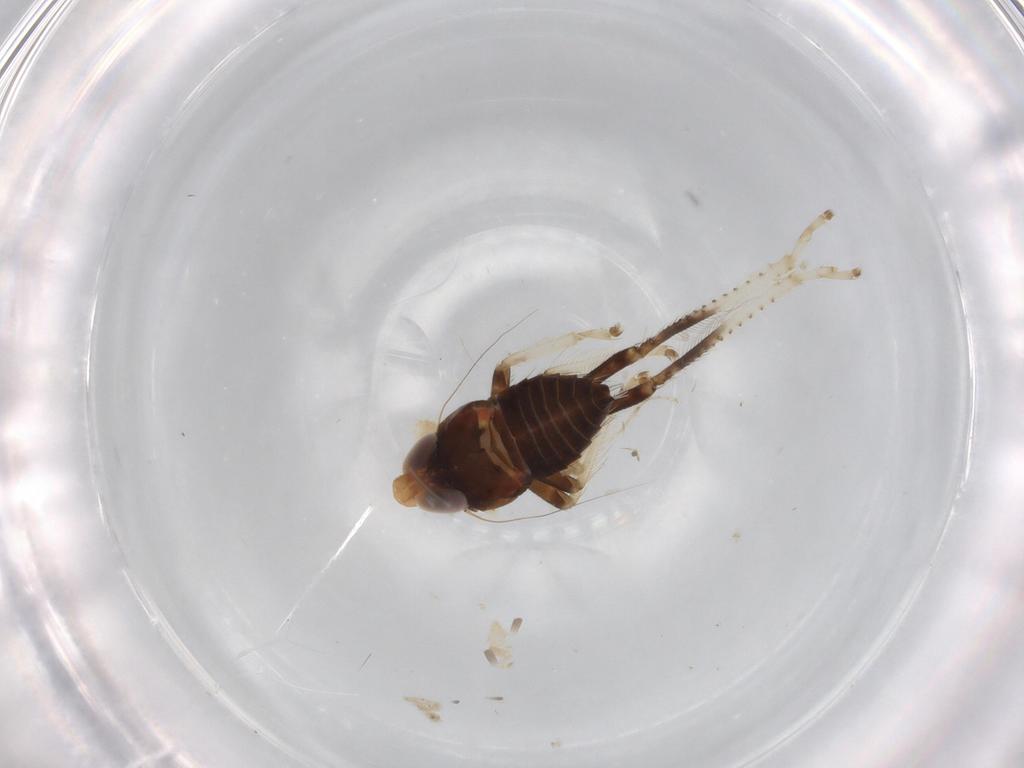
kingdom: Animalia
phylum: Arthropoda
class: Insecta
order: Hemiptera
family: Cicadellidae
